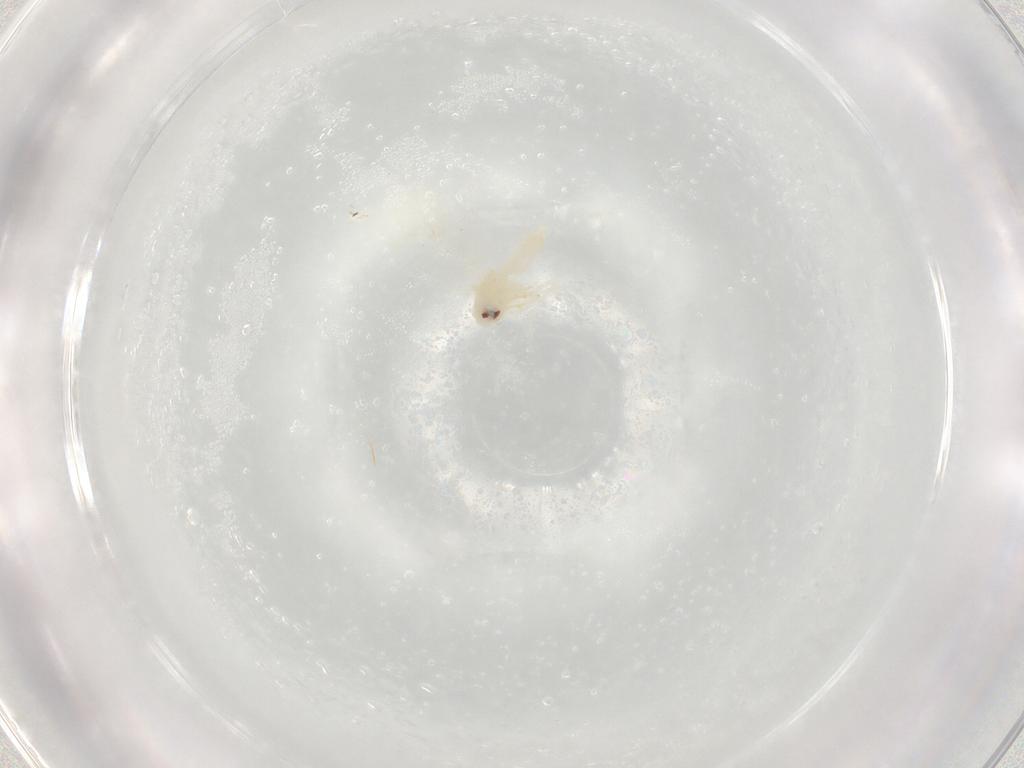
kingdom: Animalia
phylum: Arthropoda
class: Insecta
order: Hemiptera
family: Aleyrodidae
